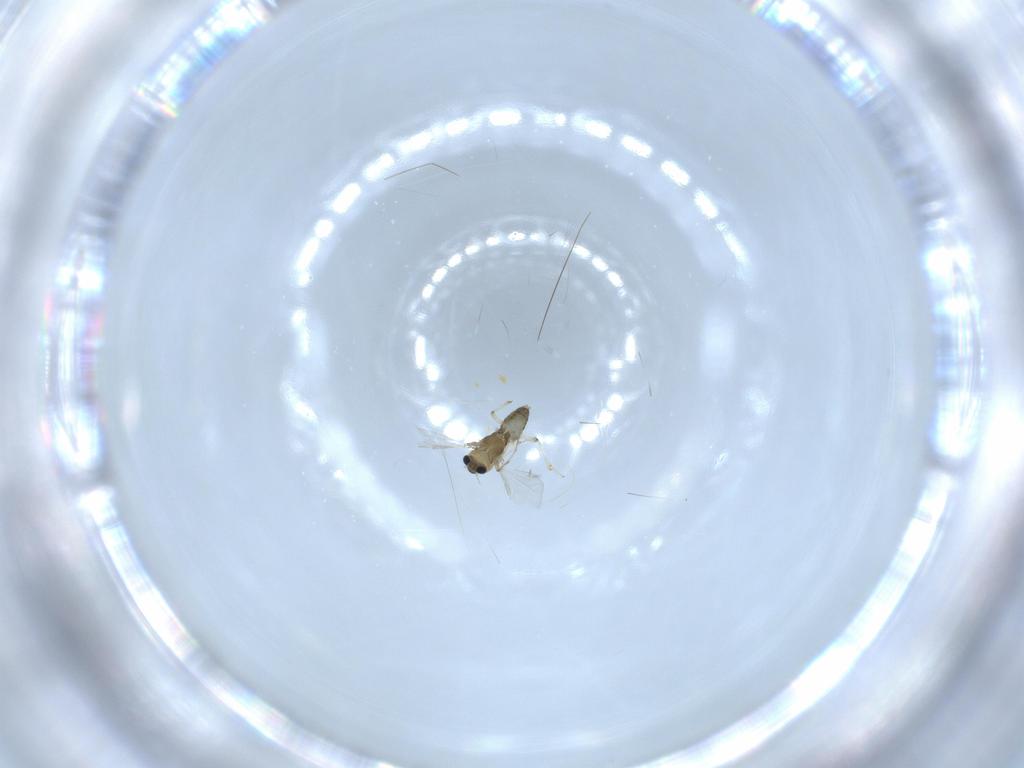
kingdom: Animalia
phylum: Arthropoda
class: Insecta
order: Diptera
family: Chironomidae
